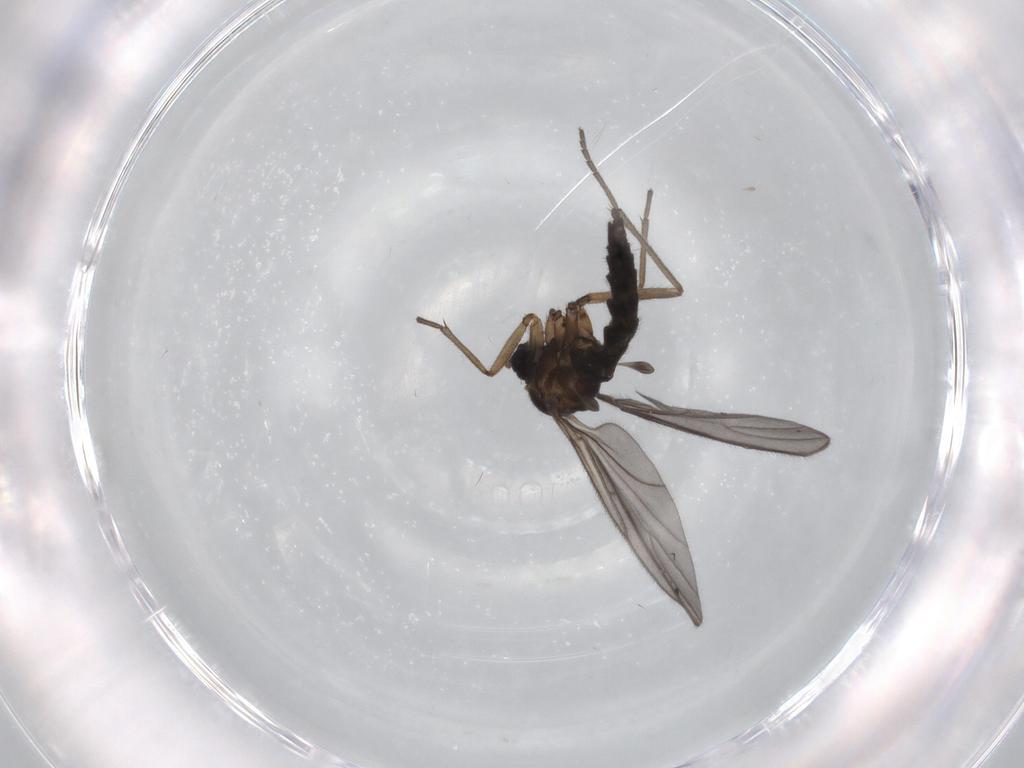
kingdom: Animalia
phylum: Arthropoda
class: Insecta
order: Diptera
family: Sciaridae
